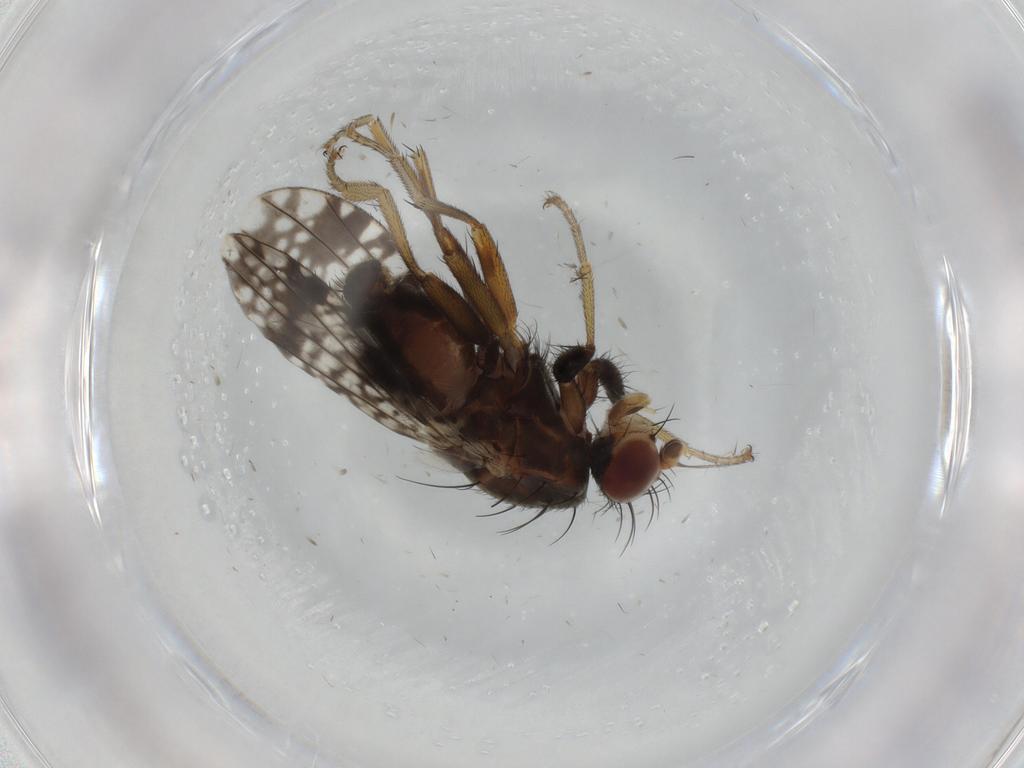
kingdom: Animalia
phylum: Arthropoda
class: Insecta
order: Diptera
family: Tephritidae
